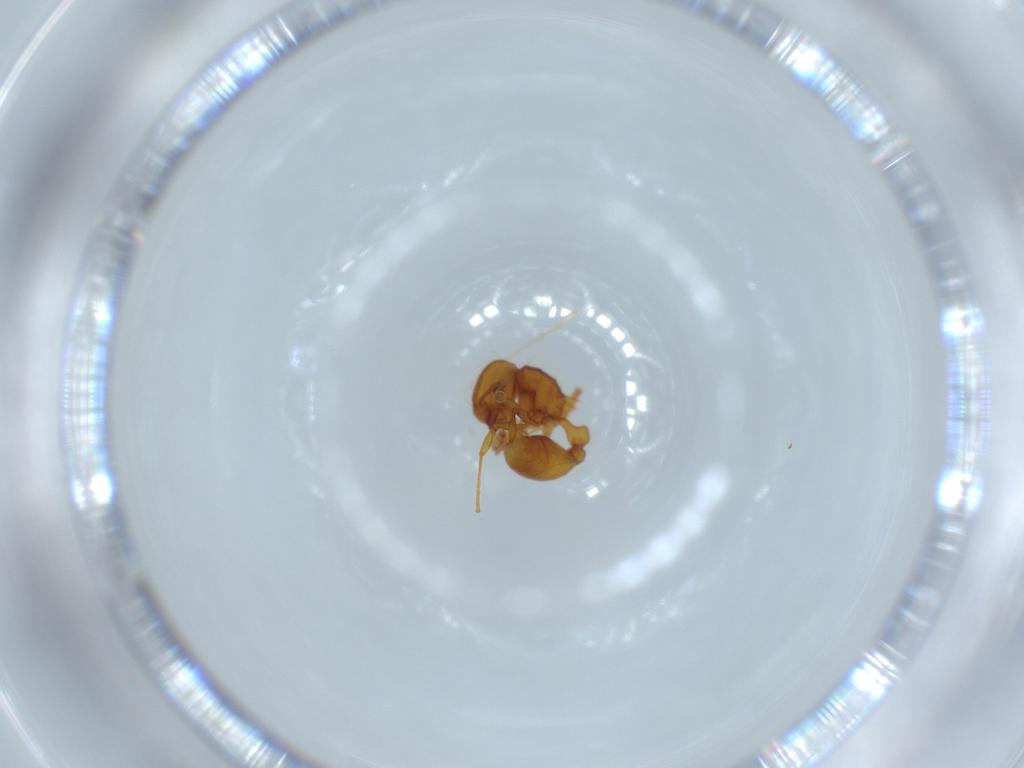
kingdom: Animalia
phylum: Arthropoda
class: Insecta
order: Hymenoptera
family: Formicidae
